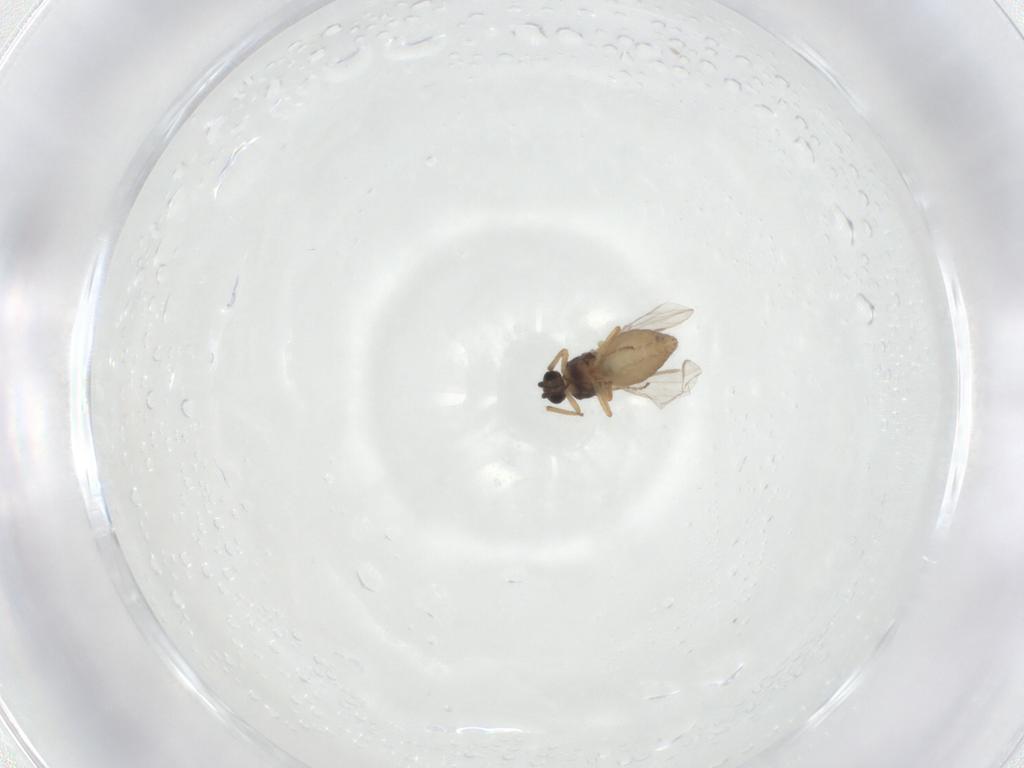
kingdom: Animalia
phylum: Arthropoda
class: Insecta
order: Diptera
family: Ceratopogonidae
